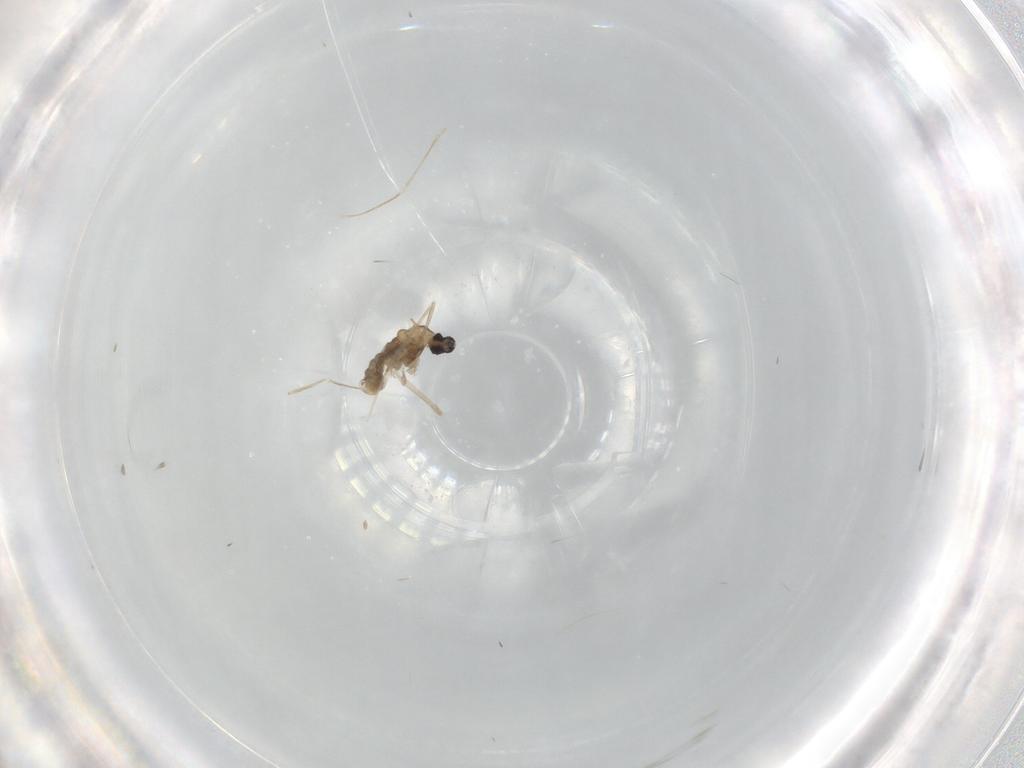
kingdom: Animalia
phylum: Arthropoda
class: Insecta
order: Diptera
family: Cecidomyiidae
